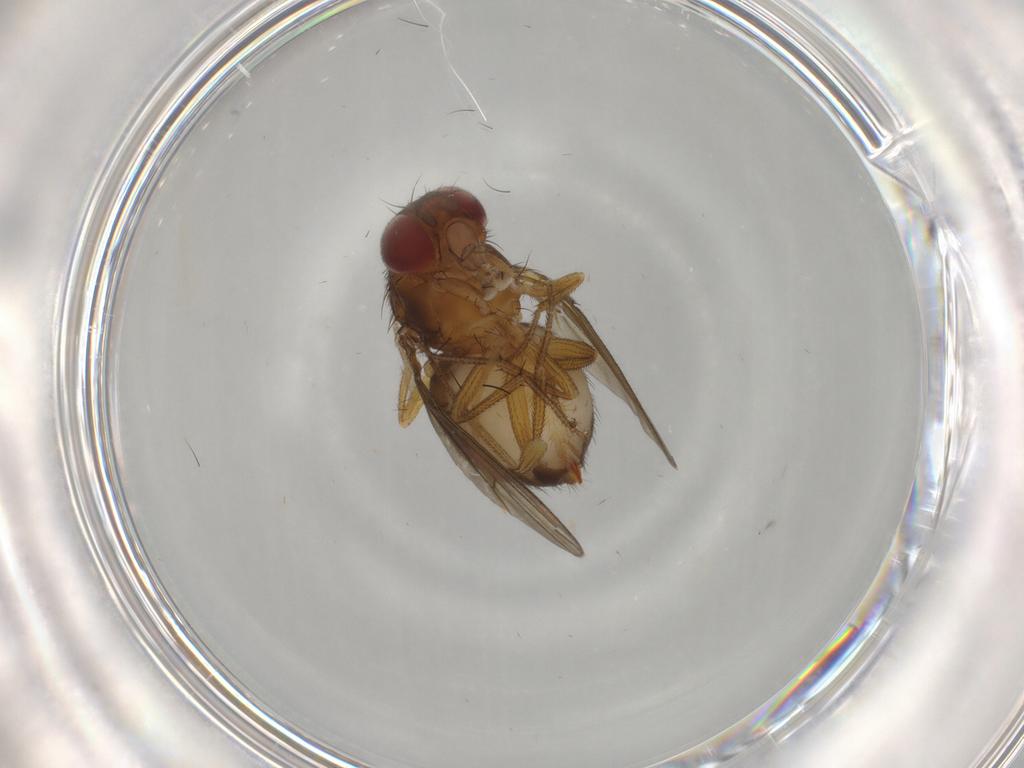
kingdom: Animalia
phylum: Arthropoda
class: Insecta
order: Diptera
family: Drosophilidae
